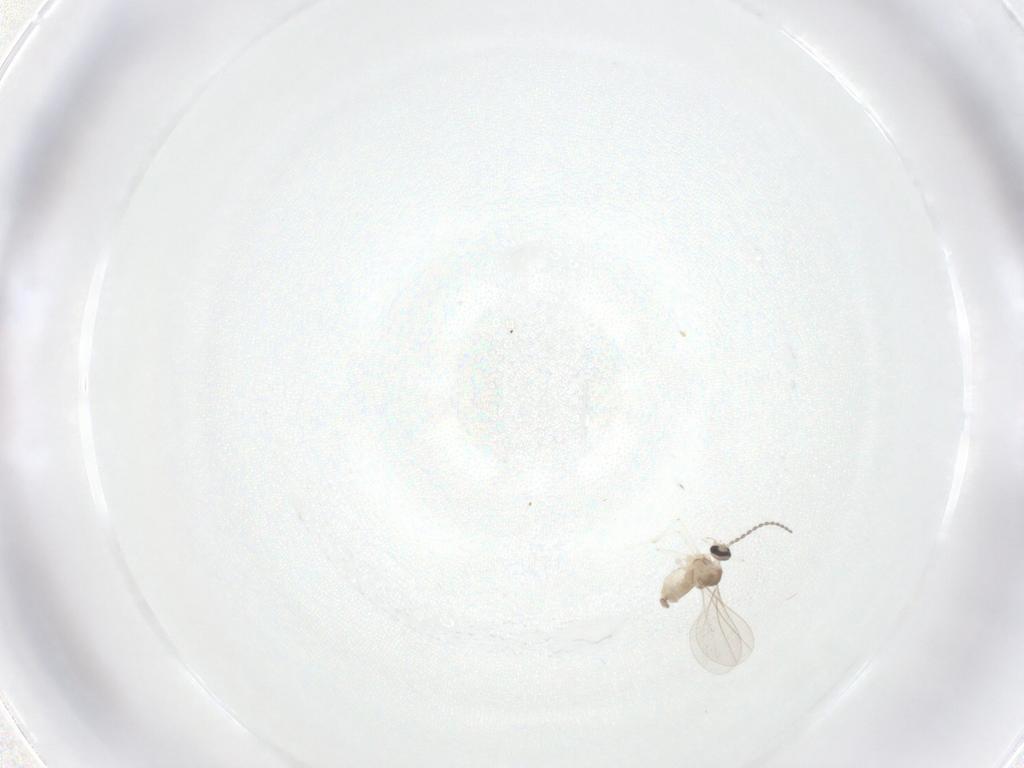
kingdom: Animalia
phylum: Arthropoda
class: Insecta
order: Diptera
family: Cecidomyiidae
